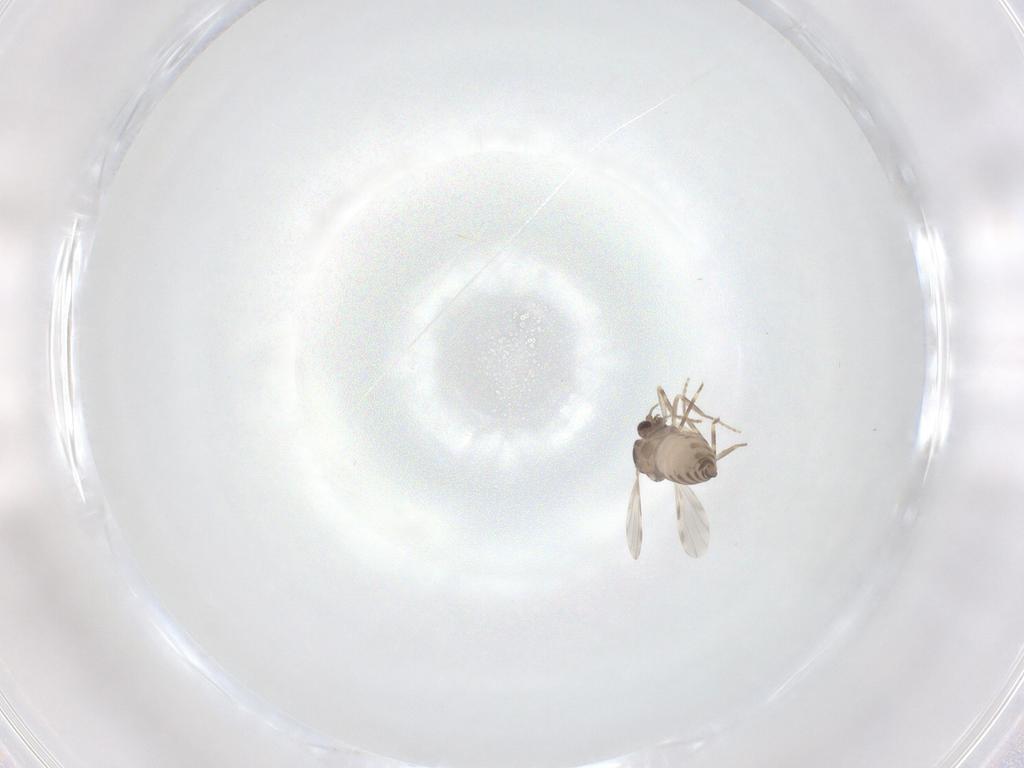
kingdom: Animalia
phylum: Arthropoda
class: Insecta
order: Diptera
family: Ceratopogonidae
